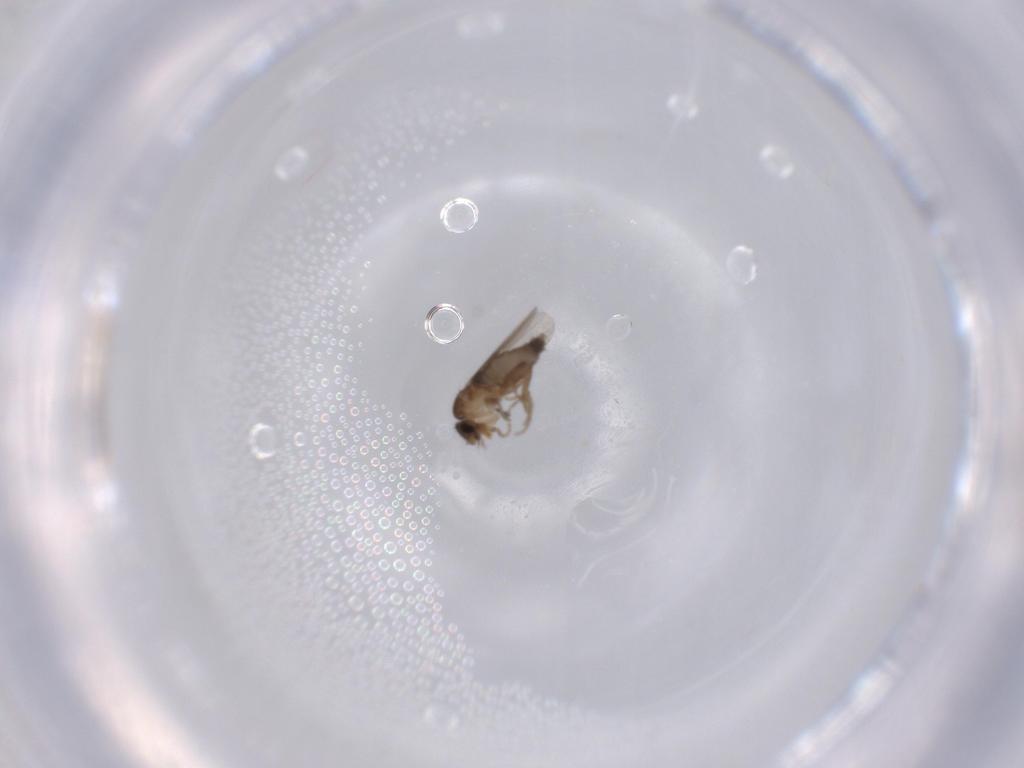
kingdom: Animalia
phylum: Arthropoda
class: Insecta
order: Diptera
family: Phoridae
